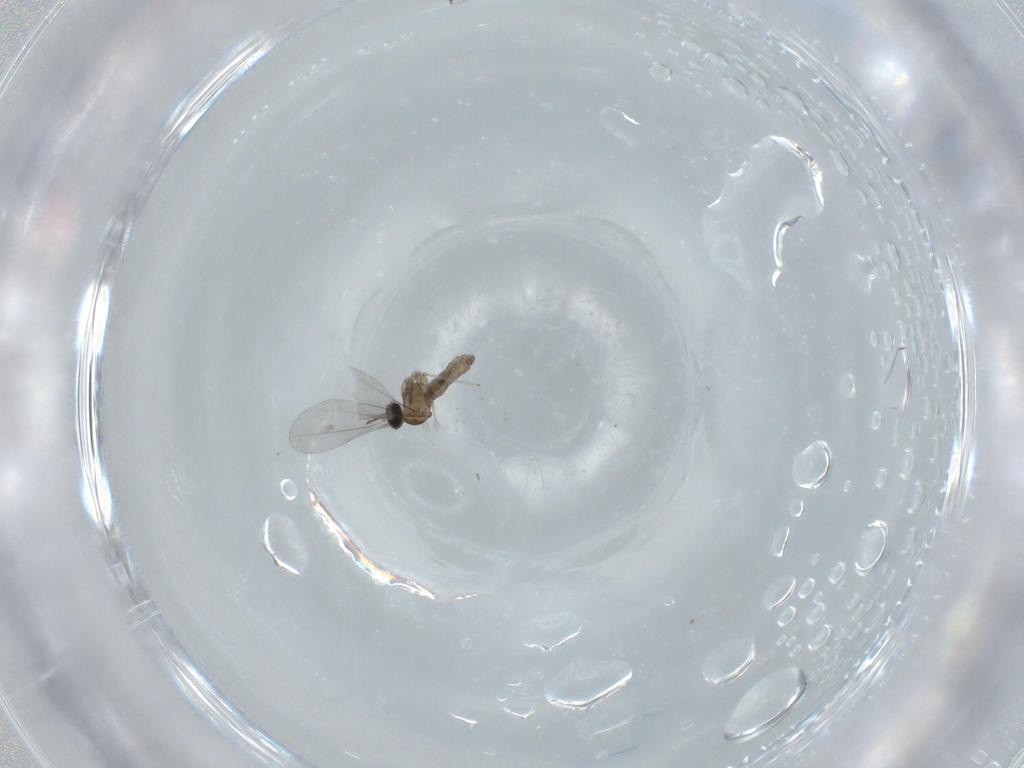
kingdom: Animalia
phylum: Arthropoda
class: Insecta
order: Diptera
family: Cecidomyiidae
